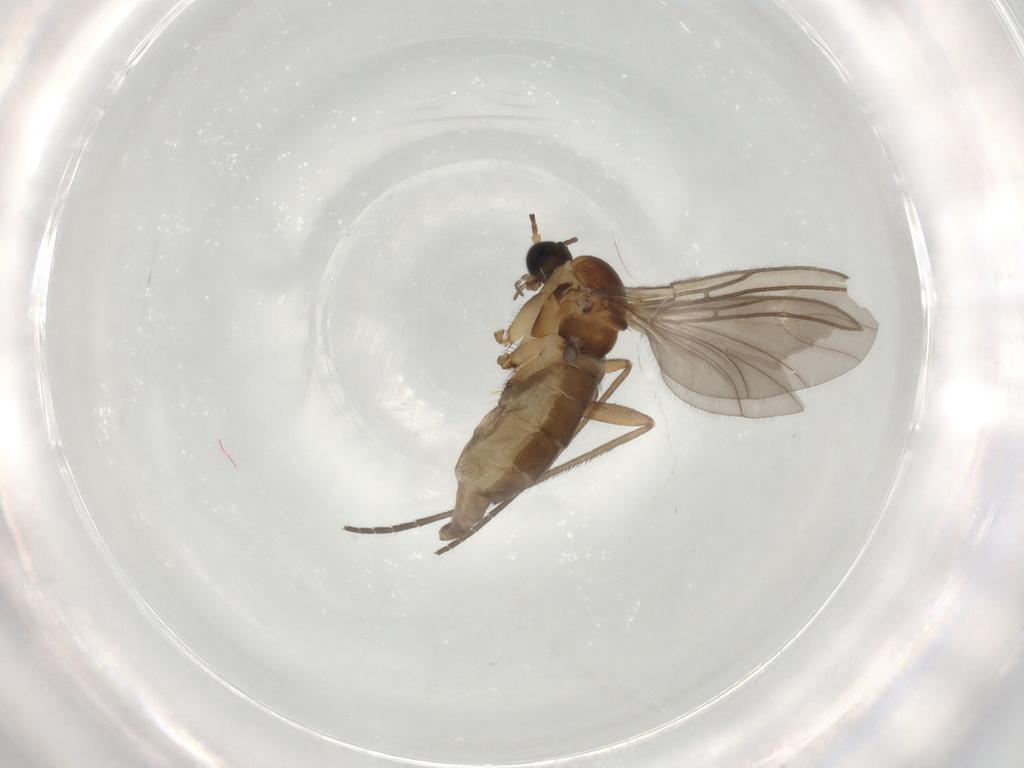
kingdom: Animalia
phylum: Arthropoda
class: Insecta
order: Diptera
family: Sciaridae
